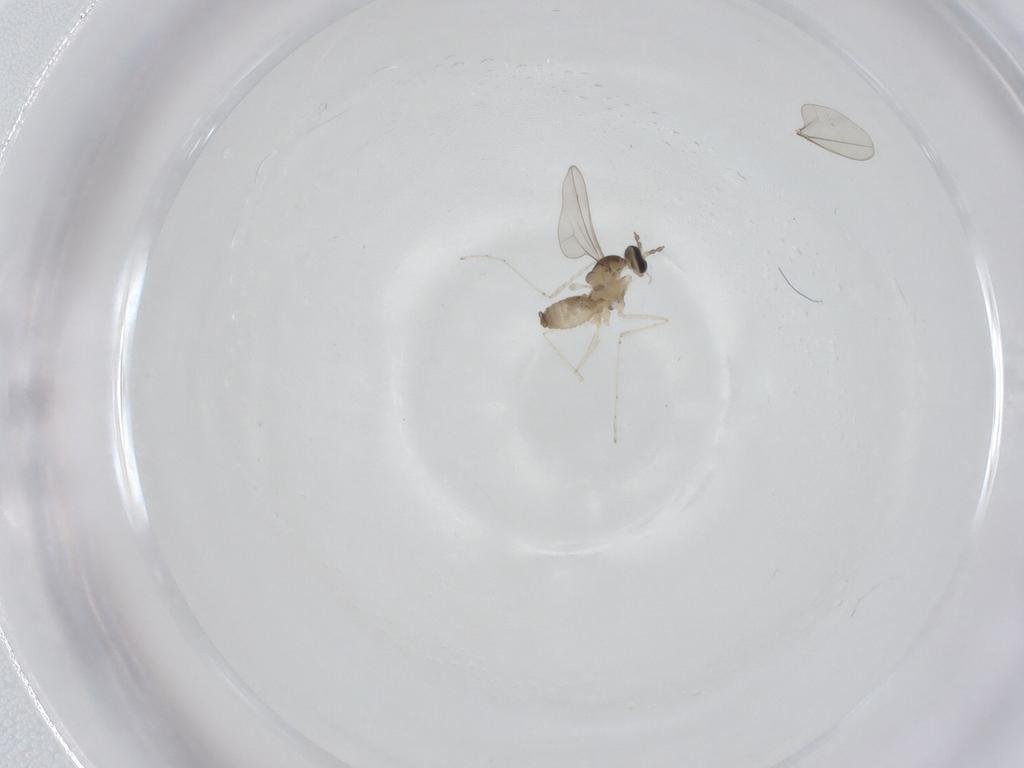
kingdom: Animalia
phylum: Arthropoda
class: Insecta
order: Diptera
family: Cecidomyiidae
